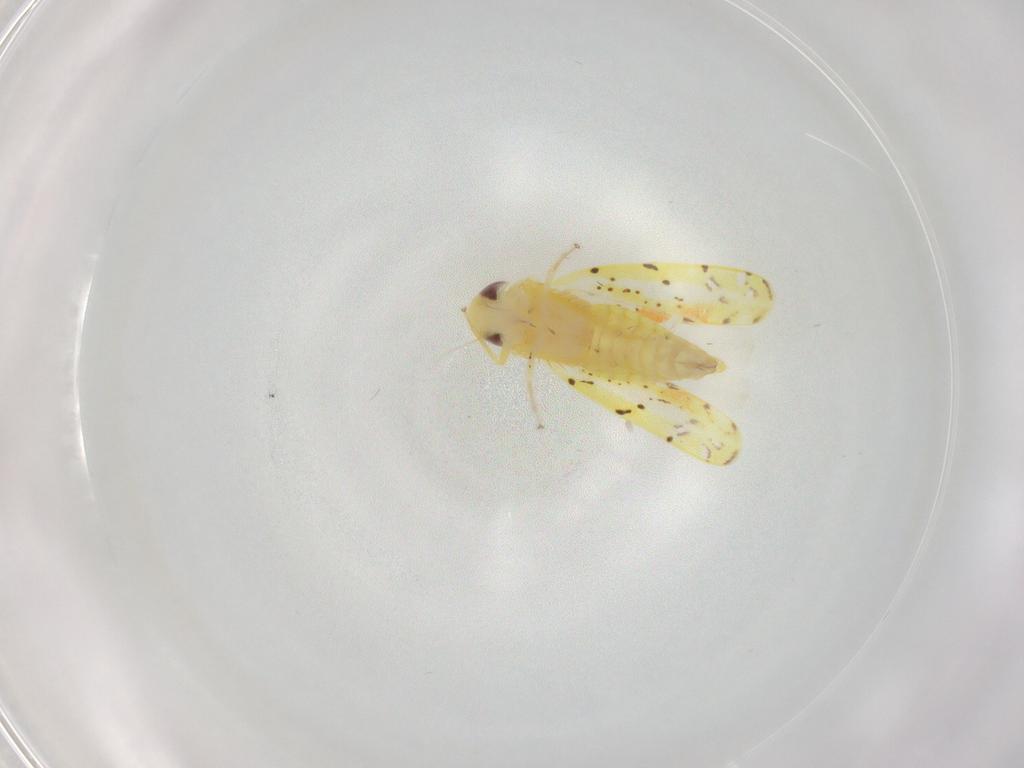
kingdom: Animalia
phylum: Arthropoda
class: Insecta
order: Hemiptera
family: Cicadellidae
